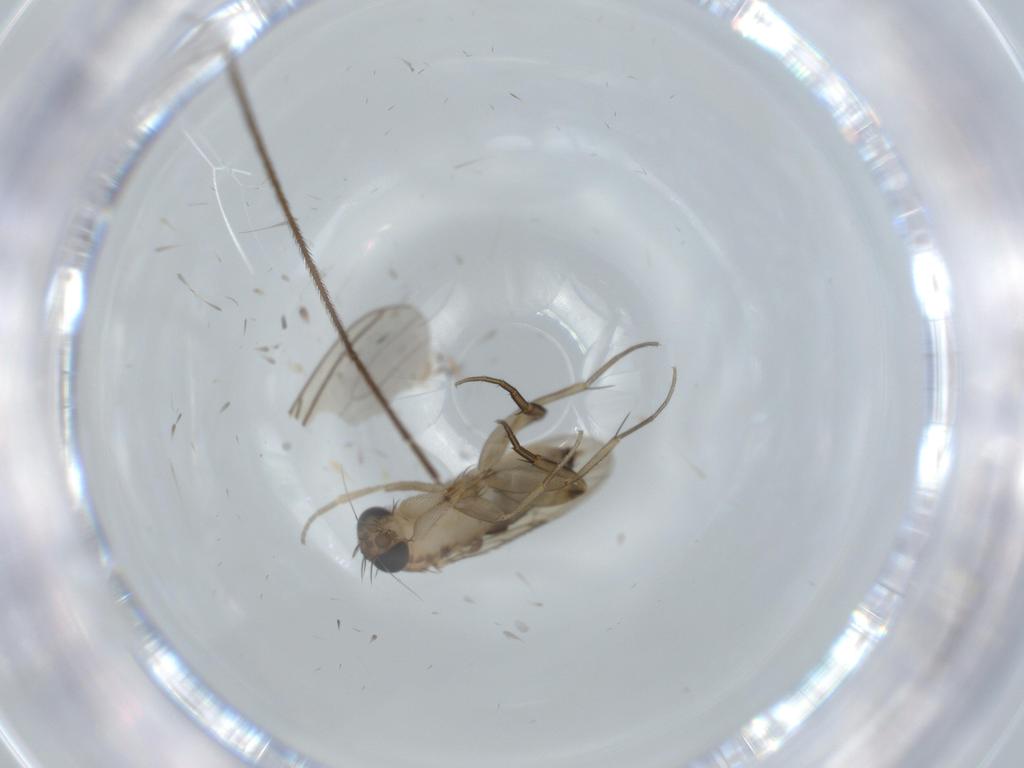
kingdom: Animalia
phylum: Arthropoda
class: Insecta
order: Diptera
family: Phoridae
